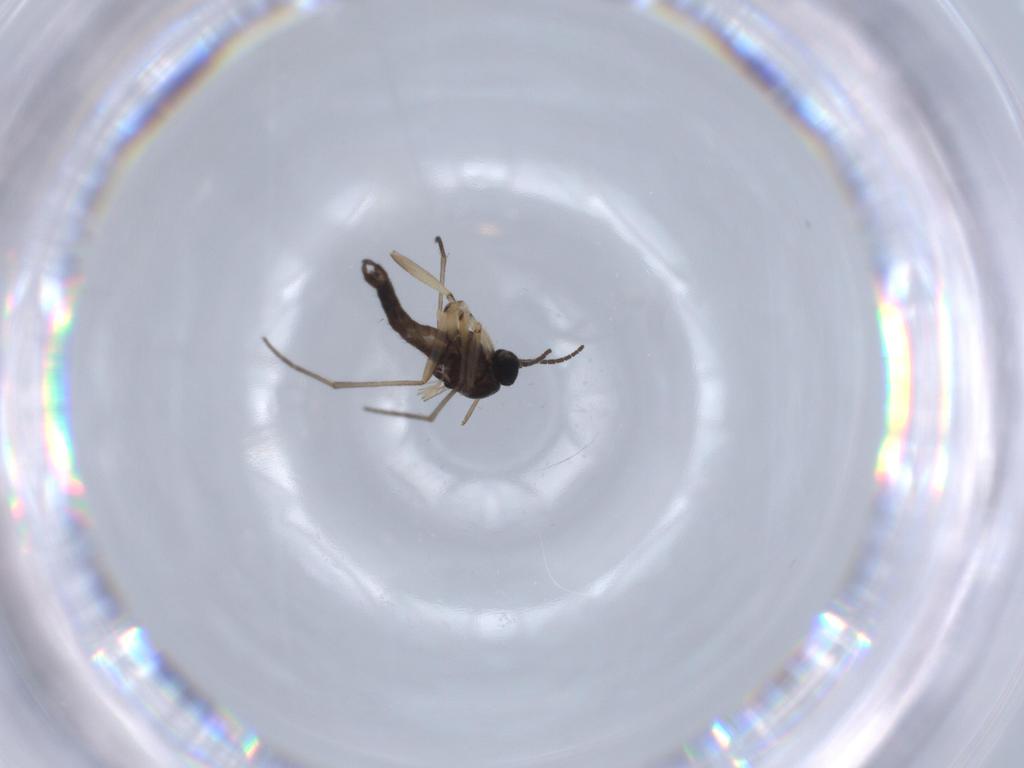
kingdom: Animalia
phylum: Arthropoda
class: Insecta
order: Diptera
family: Sciaridae
